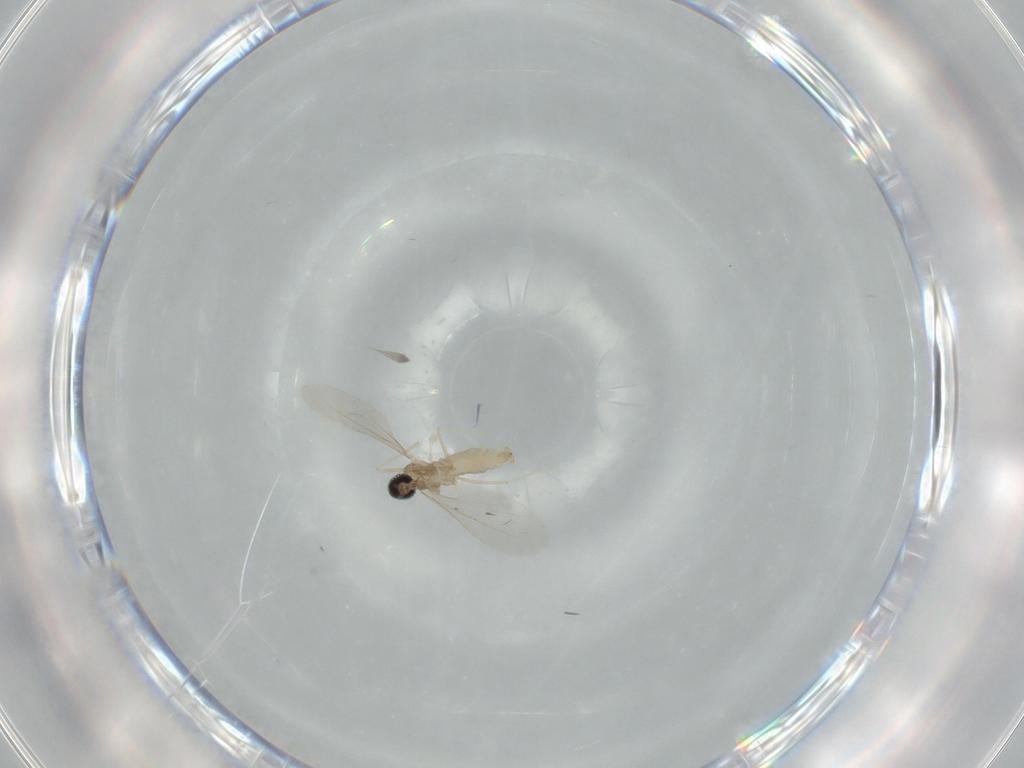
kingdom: Animalia
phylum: Arthropoda
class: Insecta
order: Diptera
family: Cecidomyiidae
